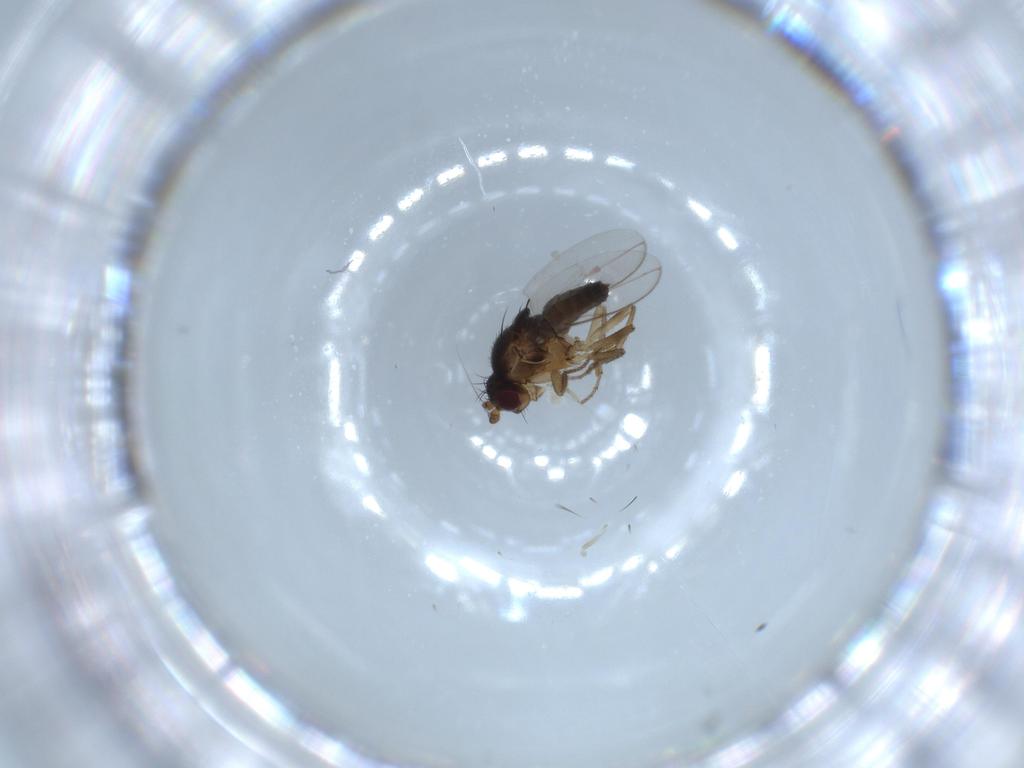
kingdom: Animalia
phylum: Arthropoda
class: Insecta
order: Diptera
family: Sphaeroceridae
